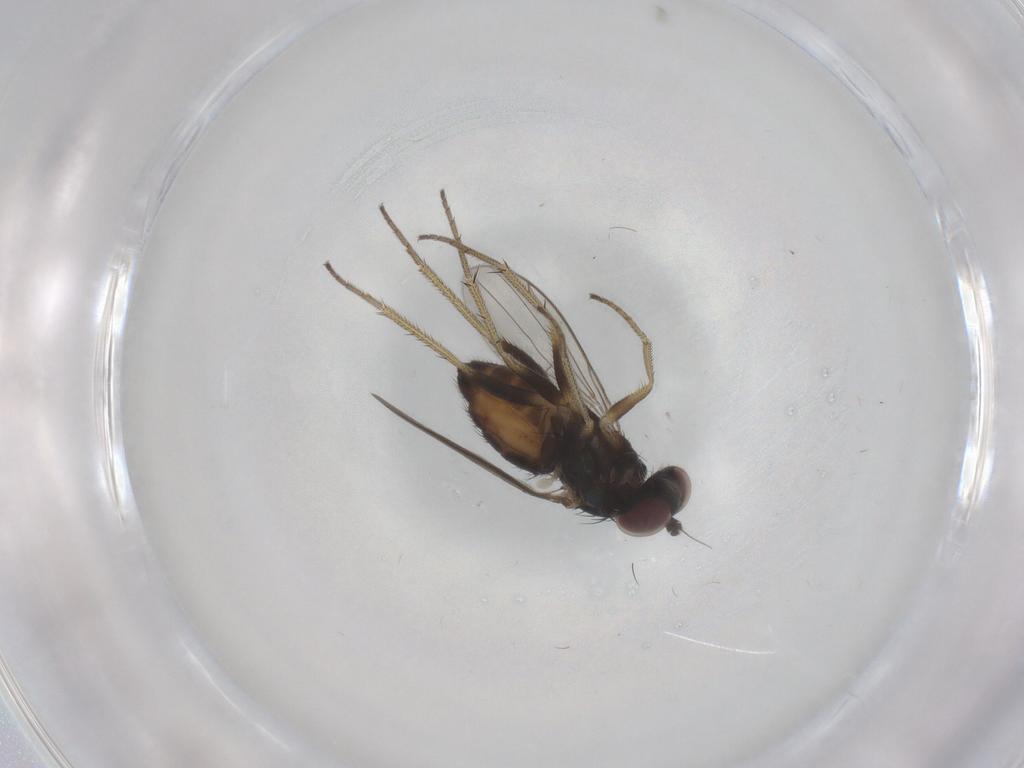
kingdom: Animalia
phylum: Arthropoda
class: Insecta
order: Diptera
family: Dolichopodidae
